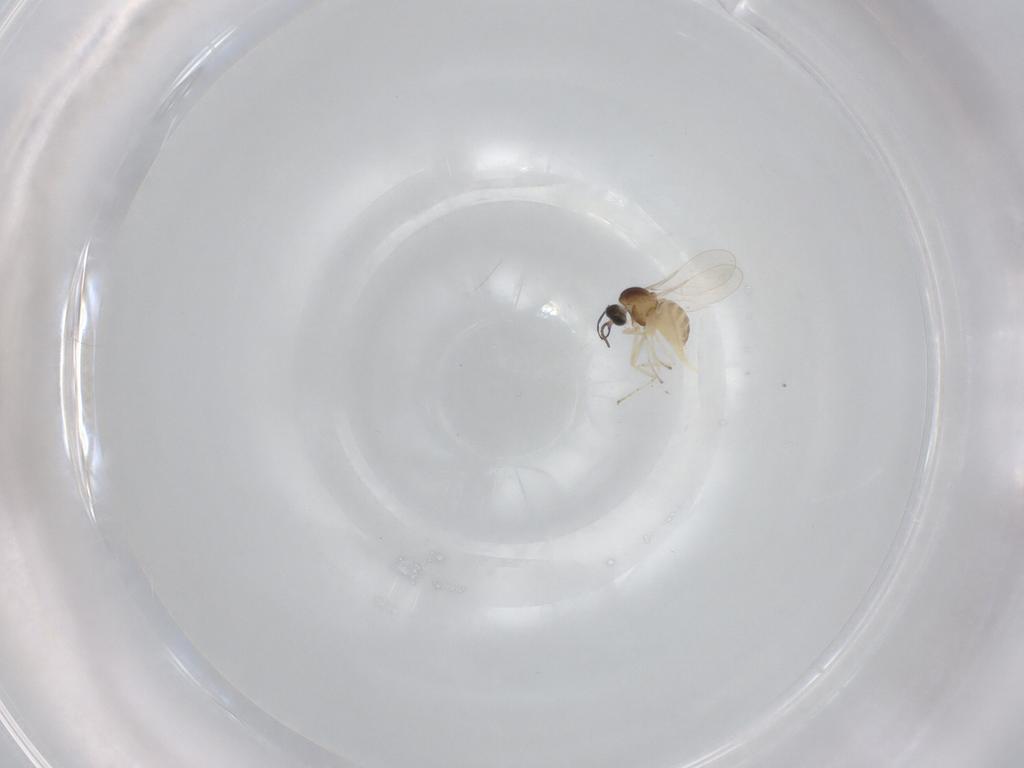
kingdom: Animalia
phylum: Arthropoda
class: Insecta
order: Diptera
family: Cecidomyiidae
